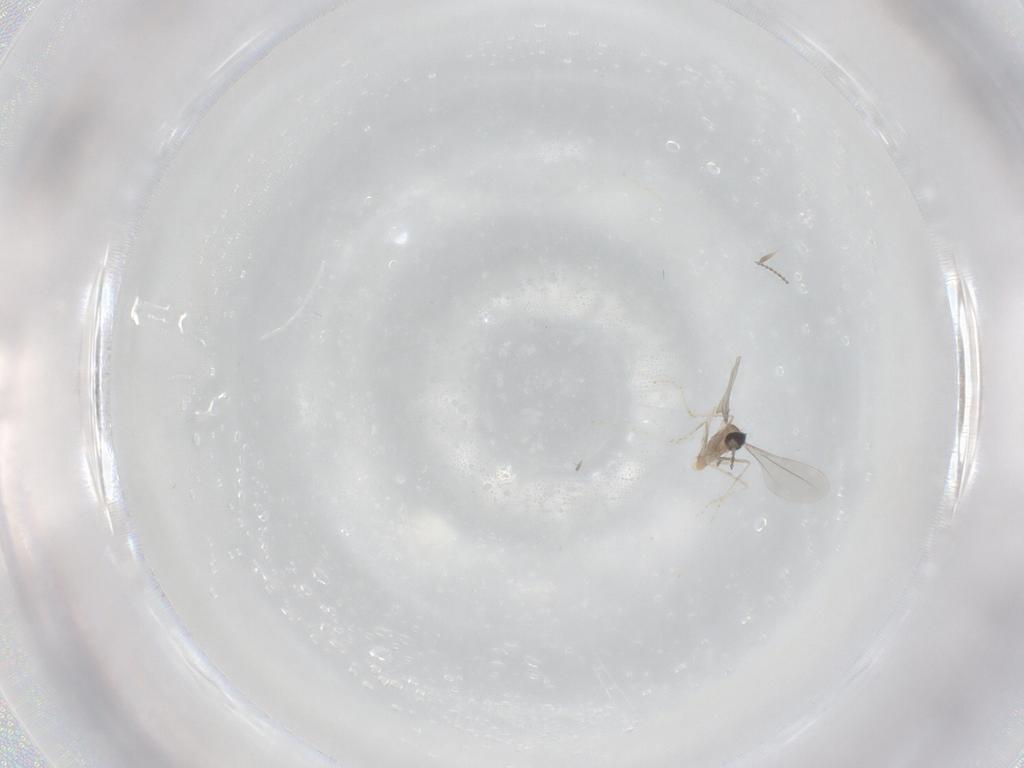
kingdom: Animalia
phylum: Arthropoda
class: Insecta
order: Diptera
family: Cecidomyiidae
